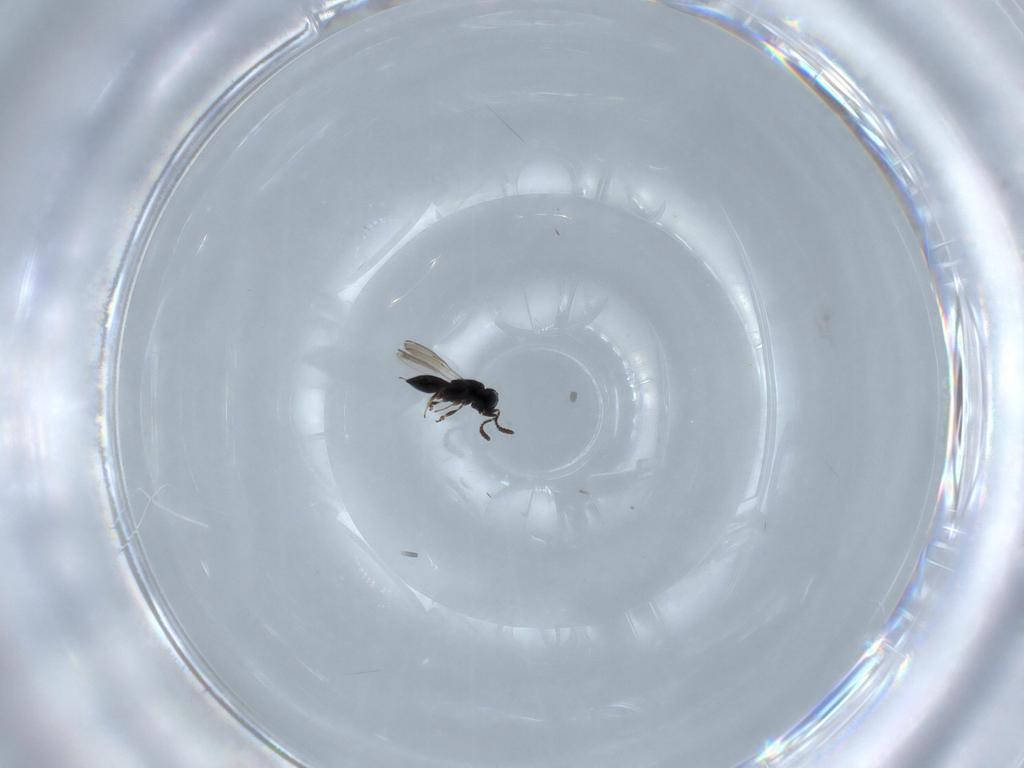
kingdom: Animalia
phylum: Arthropoda
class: Insecta
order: Hymenoptera
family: Scelionidae
